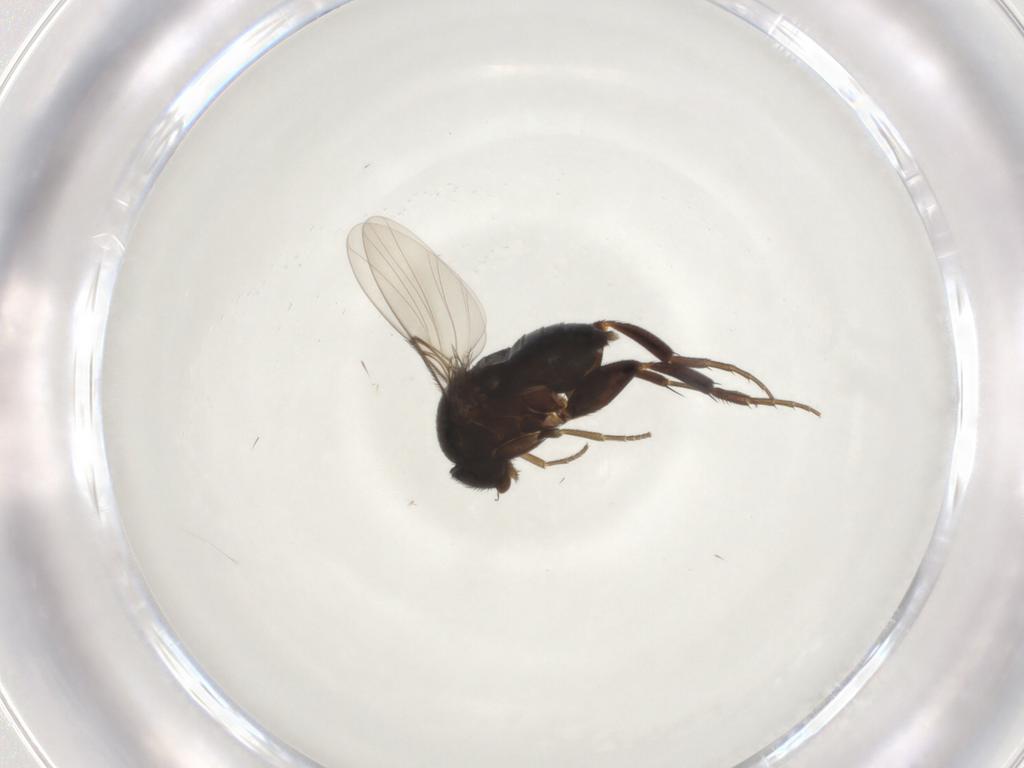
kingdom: Animalia
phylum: Arthropoda
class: Insecta
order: Diptera
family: Phoridae
